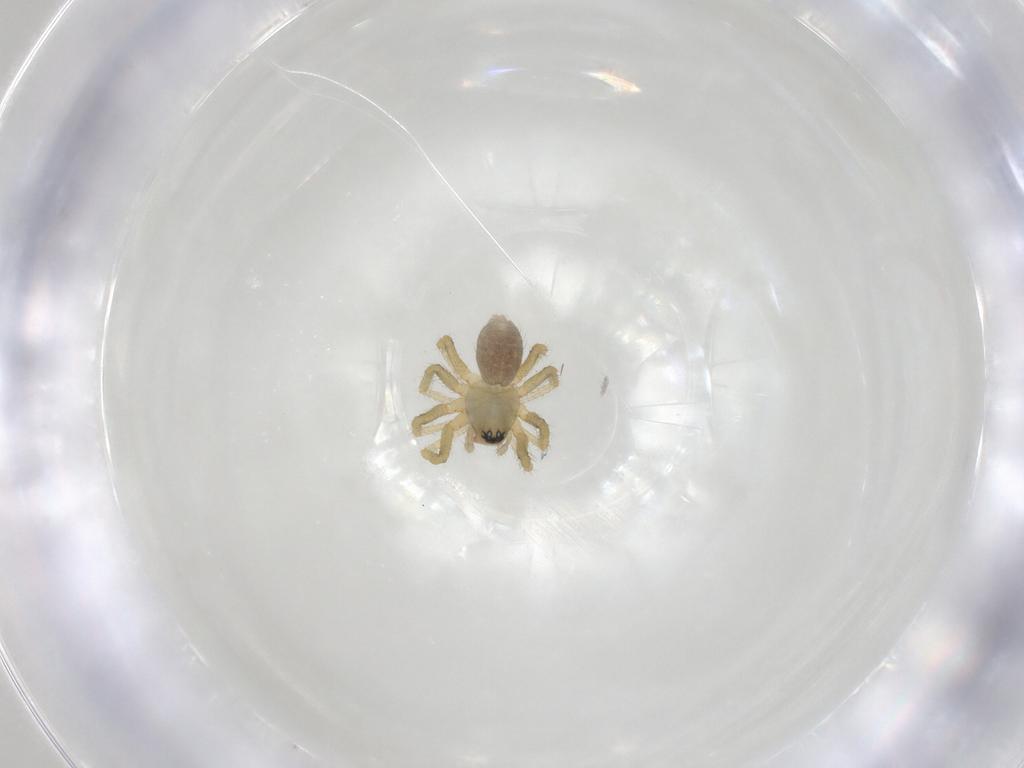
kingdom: Animalia
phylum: Arthropoda
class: Arachnida
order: Araneae
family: Linyphiidae
